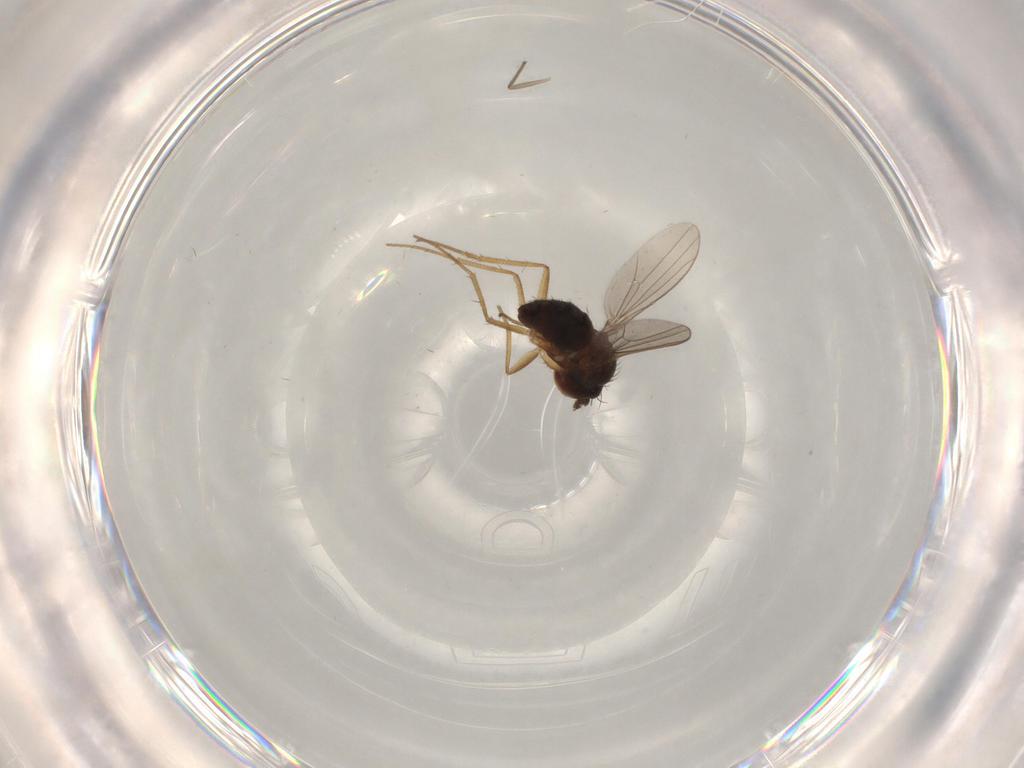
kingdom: Animalia
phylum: Arthropoda
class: Insecta
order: Diptera
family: Dolichopodidae
